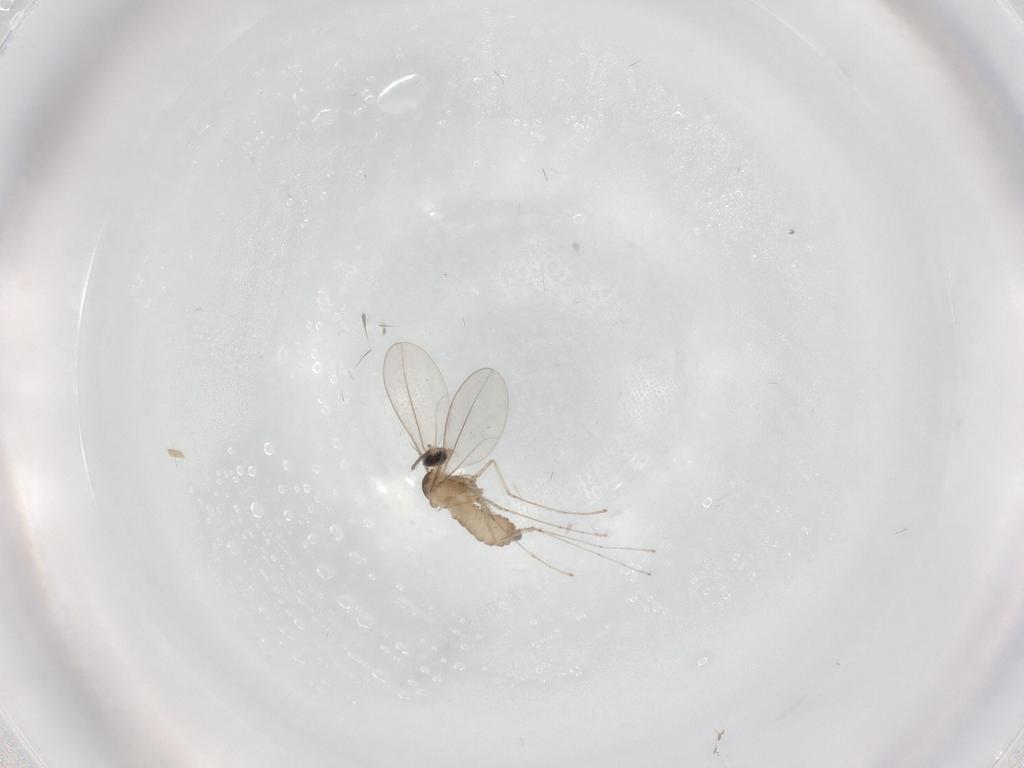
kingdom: Animalia
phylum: Arthropoda
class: Insecta
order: Diptera
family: Cecidomyiidae
